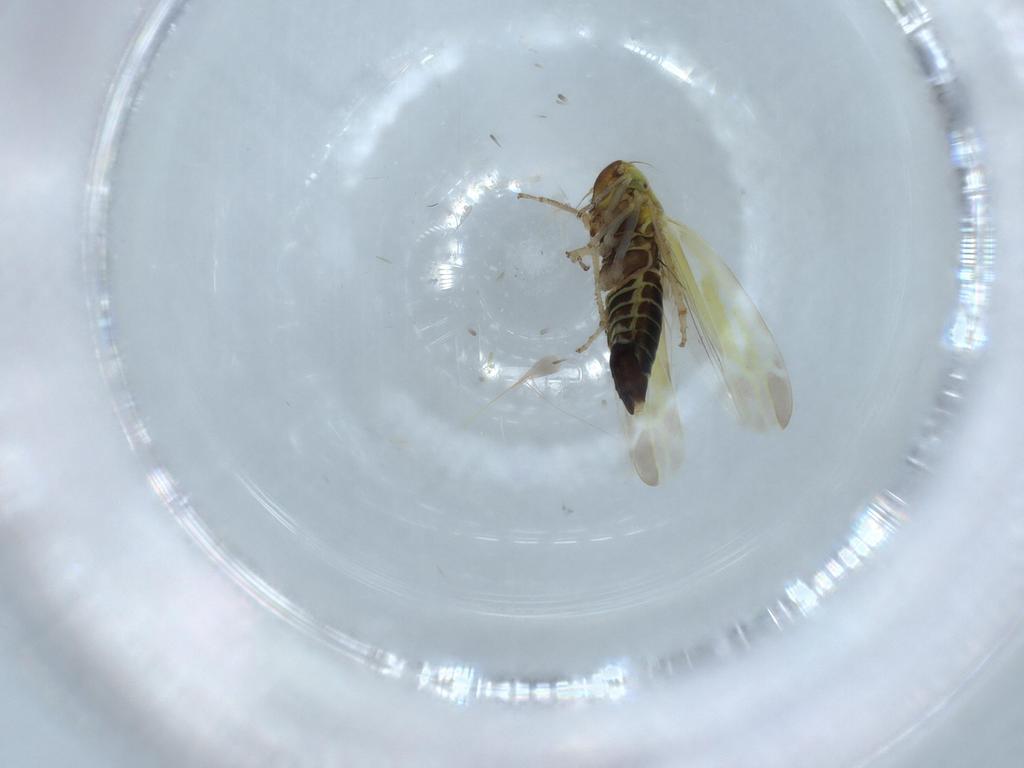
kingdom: Animalia
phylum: Arthropoda
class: Insecta
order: Hemiptera
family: Cicadellidae
